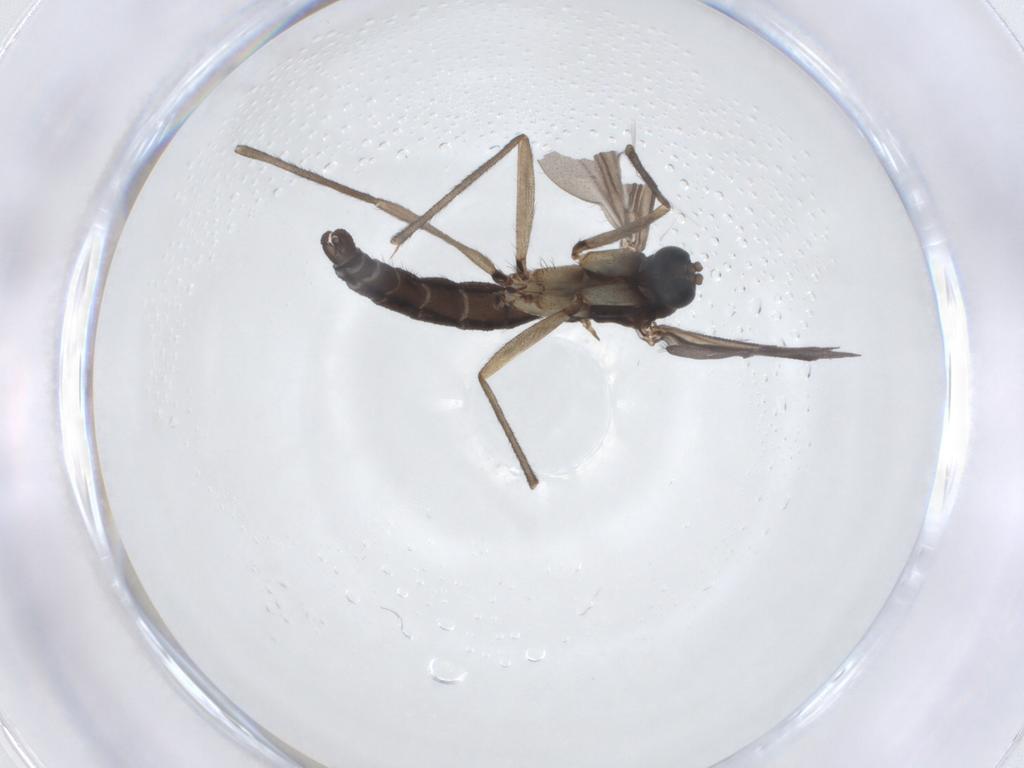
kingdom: Animalia
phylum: Arthropoda
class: Insecta
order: Diptera
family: Sciaridae
